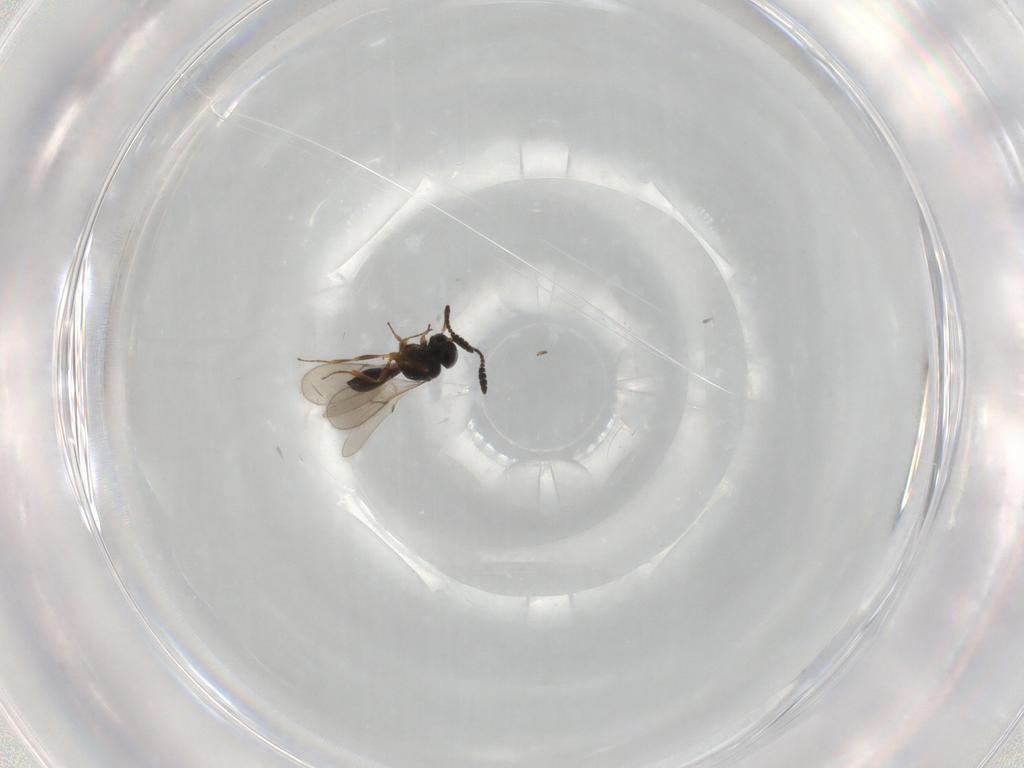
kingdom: Animalia
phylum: Arthropoda
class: Insecta
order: Hymenoptera
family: Scelionidae
